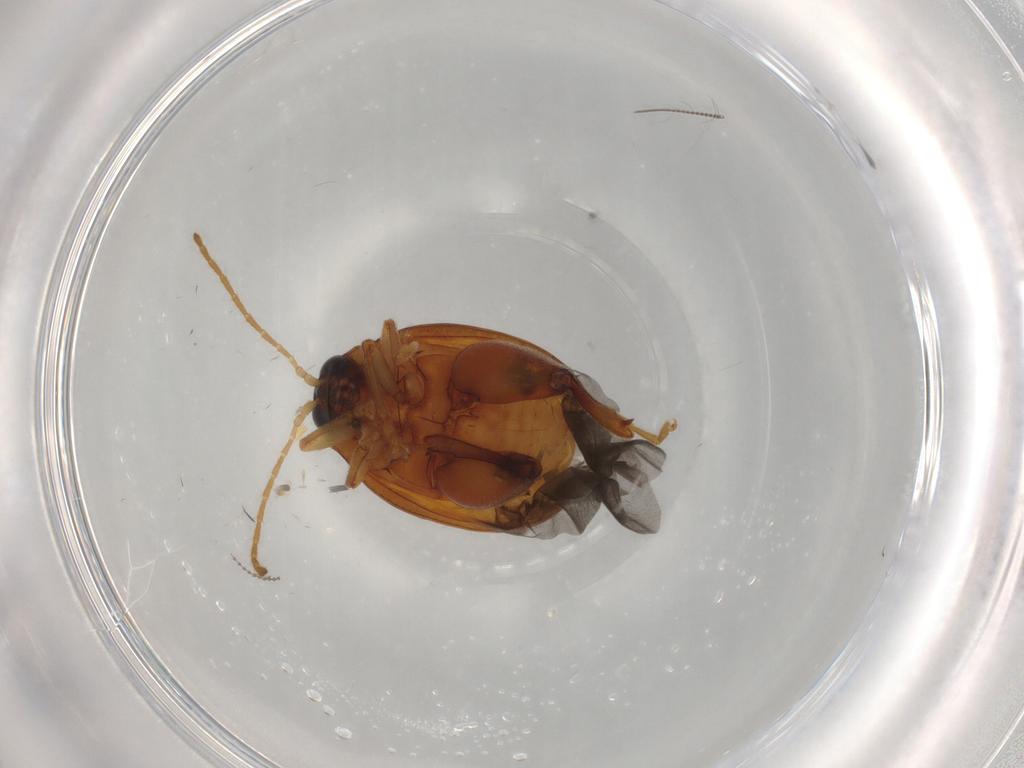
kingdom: Animalia
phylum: Arthropoda
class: Insecta
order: Coleoptera
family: Chrysomelidae
